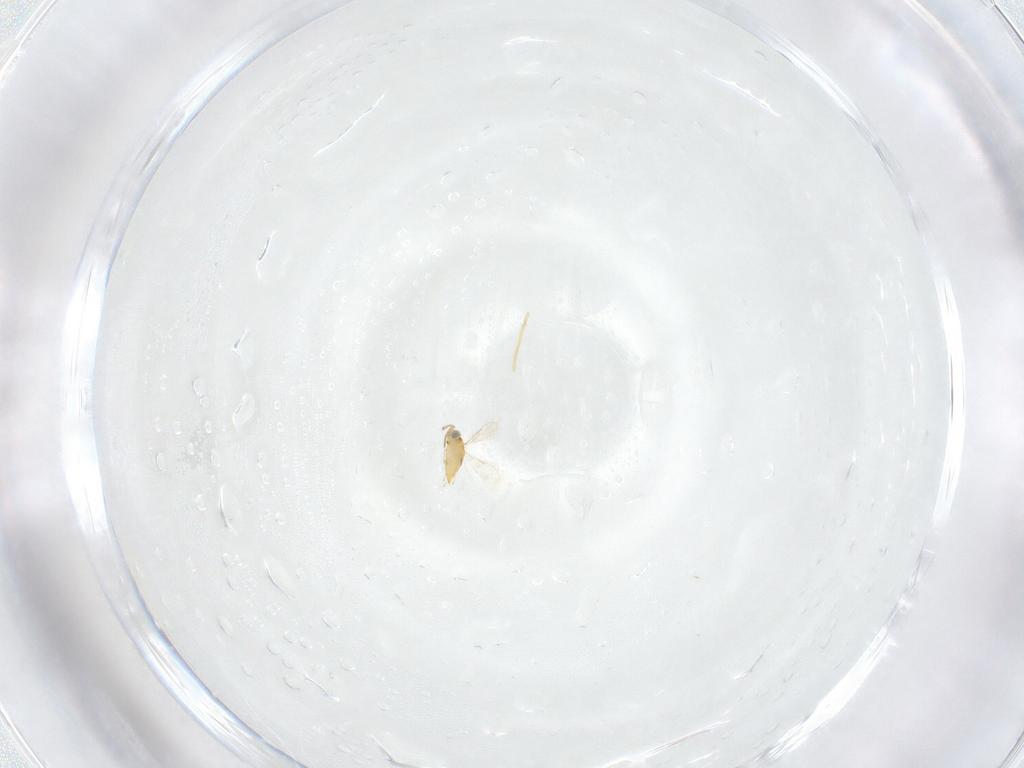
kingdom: Animalia
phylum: Arthropoda
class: Insecta
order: Hymenoptera
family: Aphelinidae
